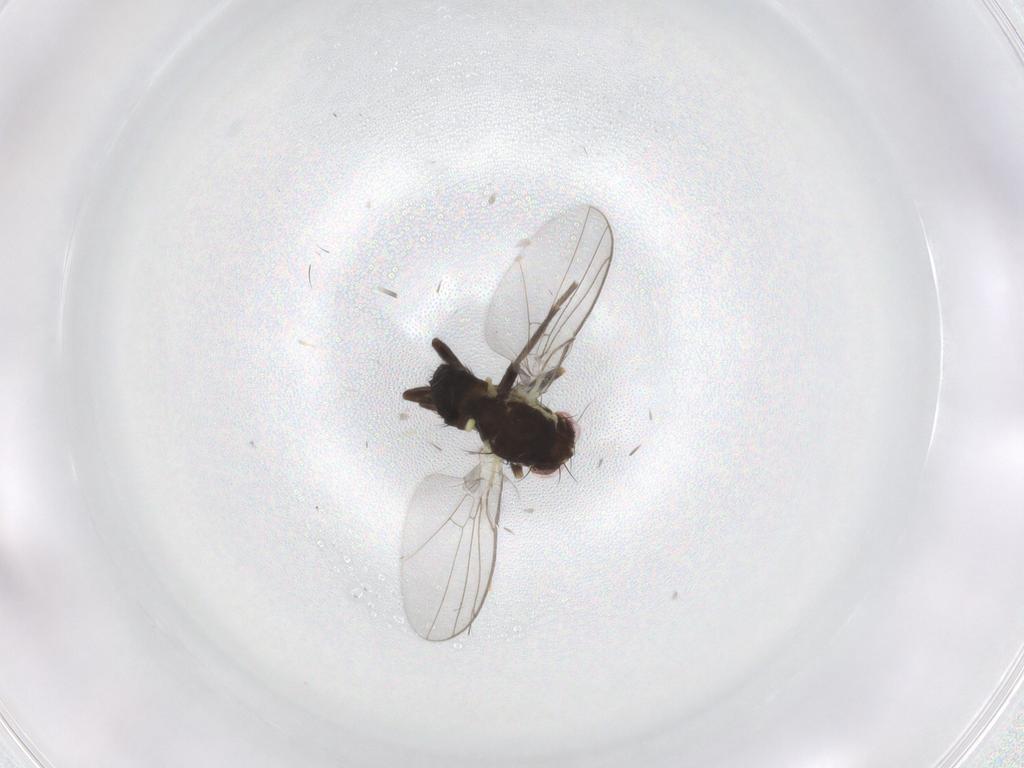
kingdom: Animalia
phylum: Arthropoda
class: Insecta
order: Diptera
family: Agromyzidae
